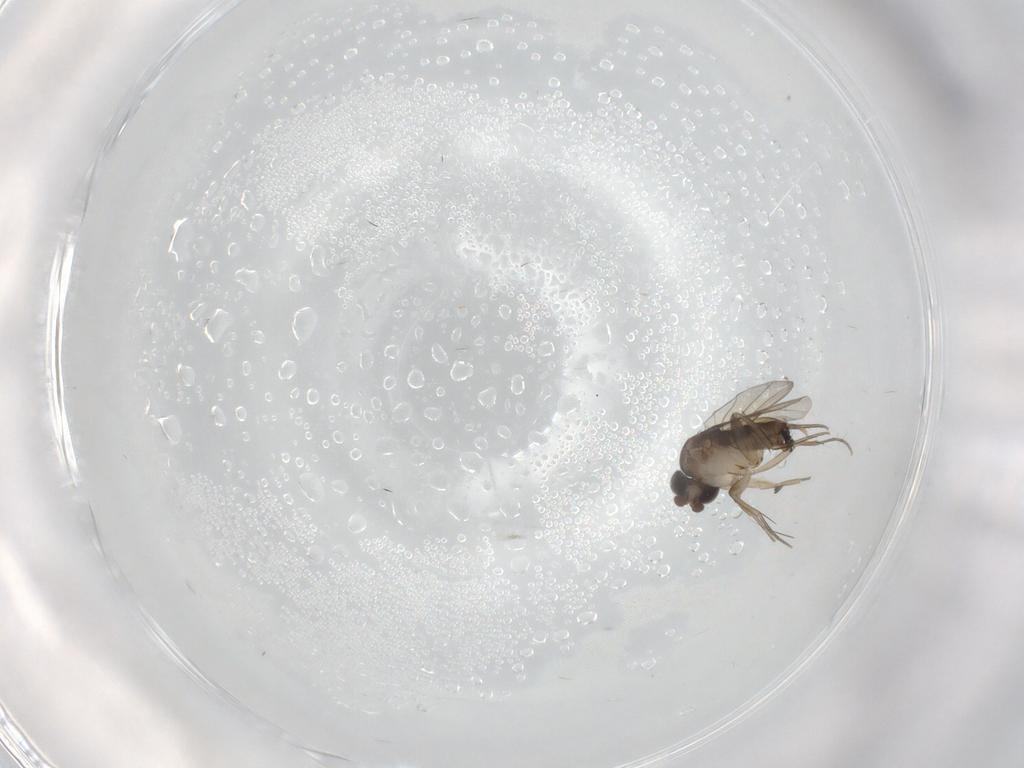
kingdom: Animalia
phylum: Arthropoda
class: Insecta
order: Diptera
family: Phoridae
